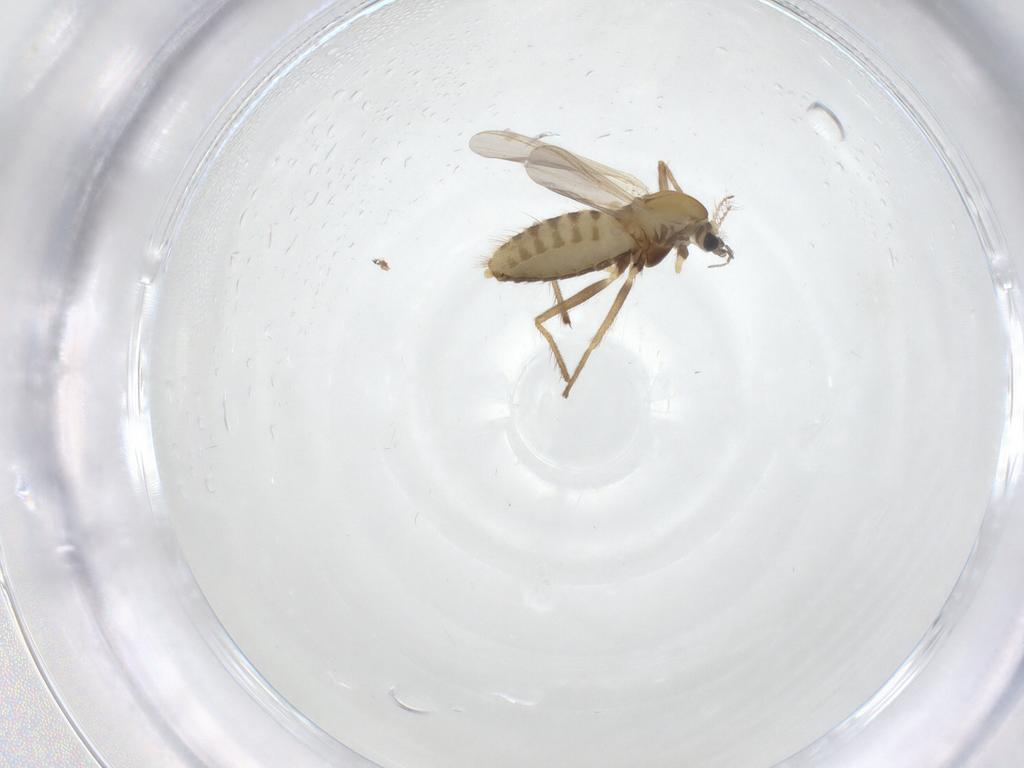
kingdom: Animalia
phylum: Arthropoda
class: Insecta
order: Diptera
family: Chironomidae
